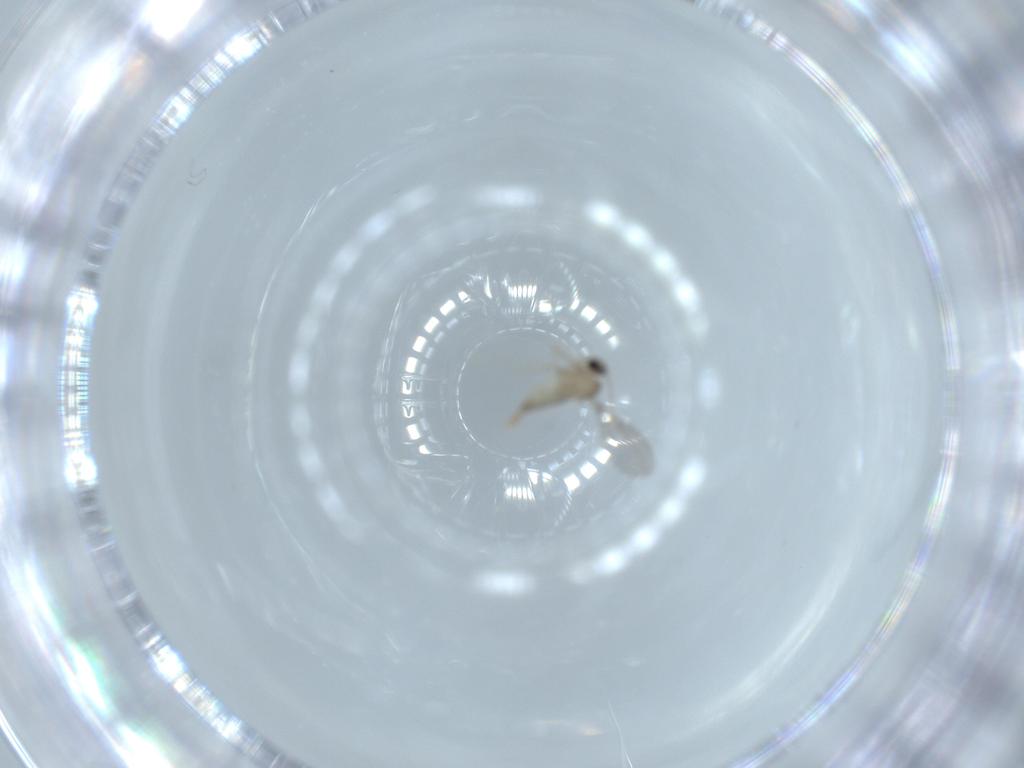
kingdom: Animalia
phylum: Arthropoda
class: Insecta
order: Diptera
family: Cecidomyiidae
